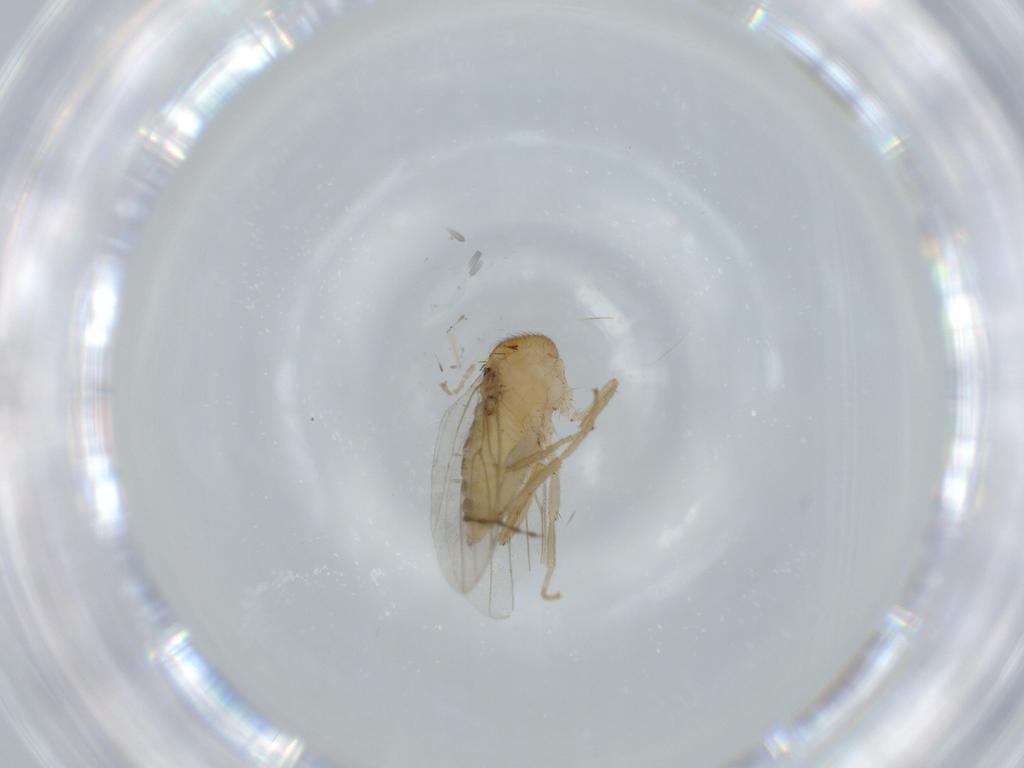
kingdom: Animalia
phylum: Arthropoda
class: Insecta
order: Diptera
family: Hybotidae
